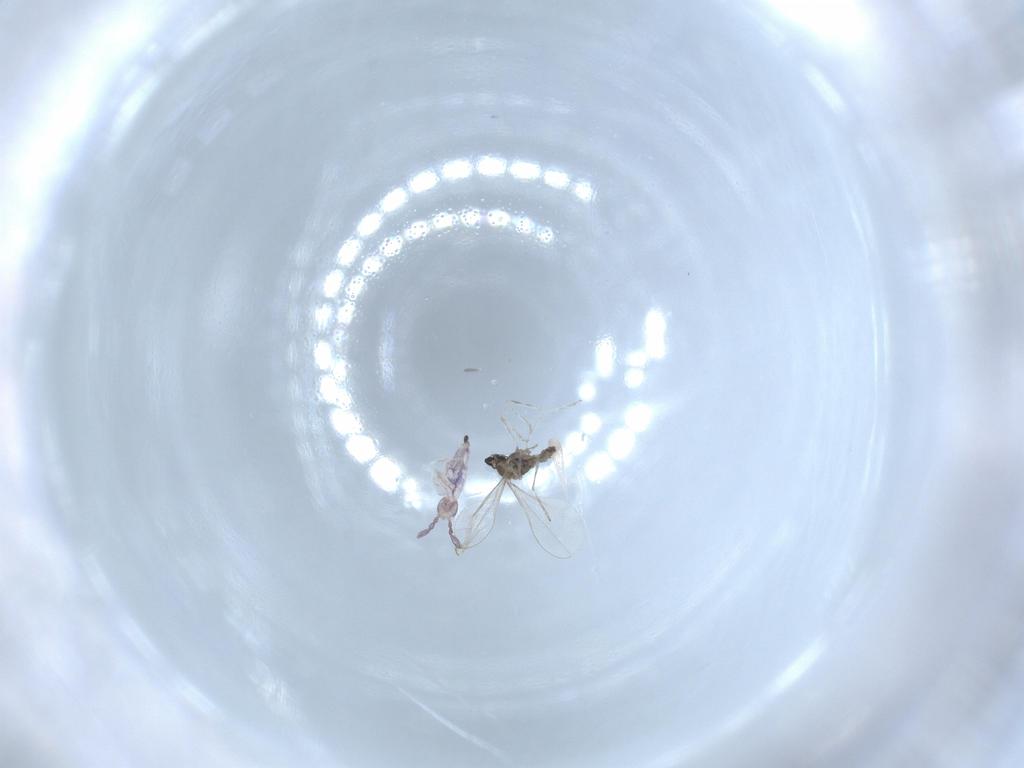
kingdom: Animalia
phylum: Arthropoda
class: Collembola
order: Entomobryomorpha
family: Entomobryidae
